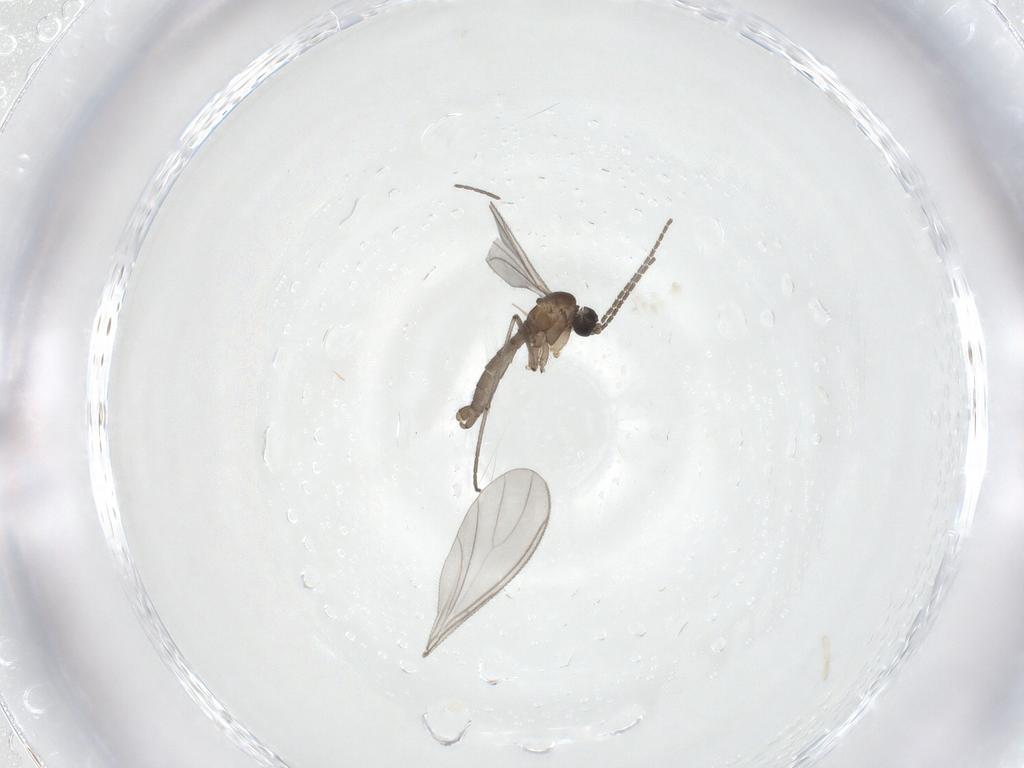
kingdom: Animalia
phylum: Arthropoda
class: Insecta
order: Diptera
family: Sciaridae
